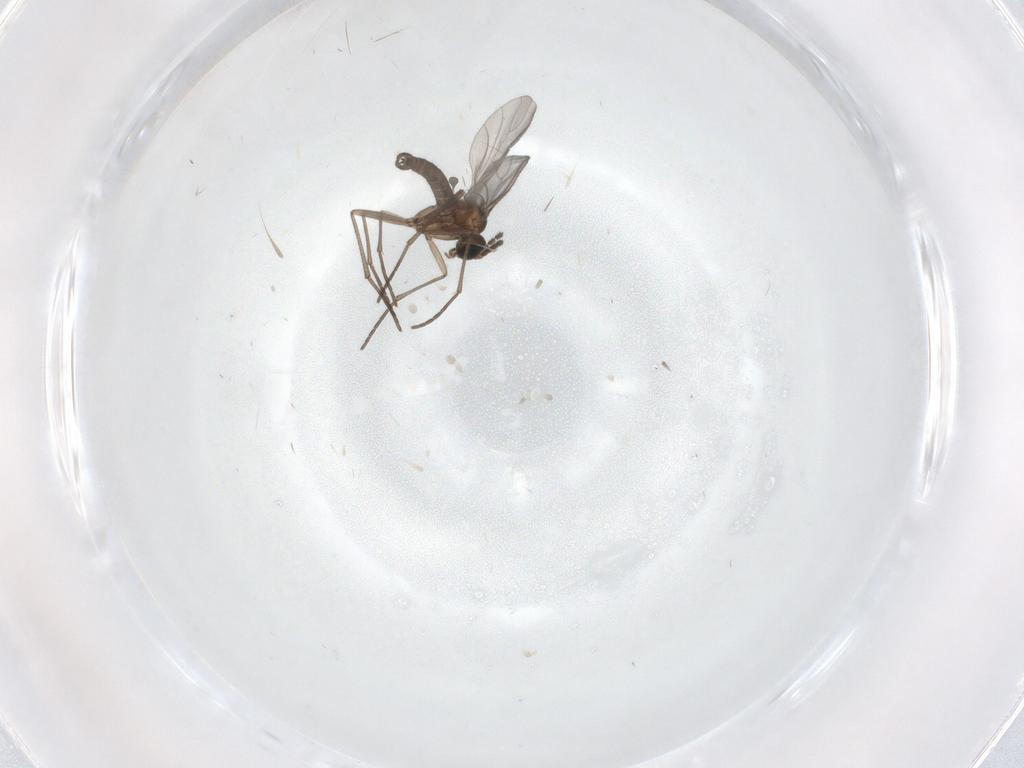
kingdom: Animalia
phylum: Arthropoda
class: Insecta
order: Diptera
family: Sciaridae
